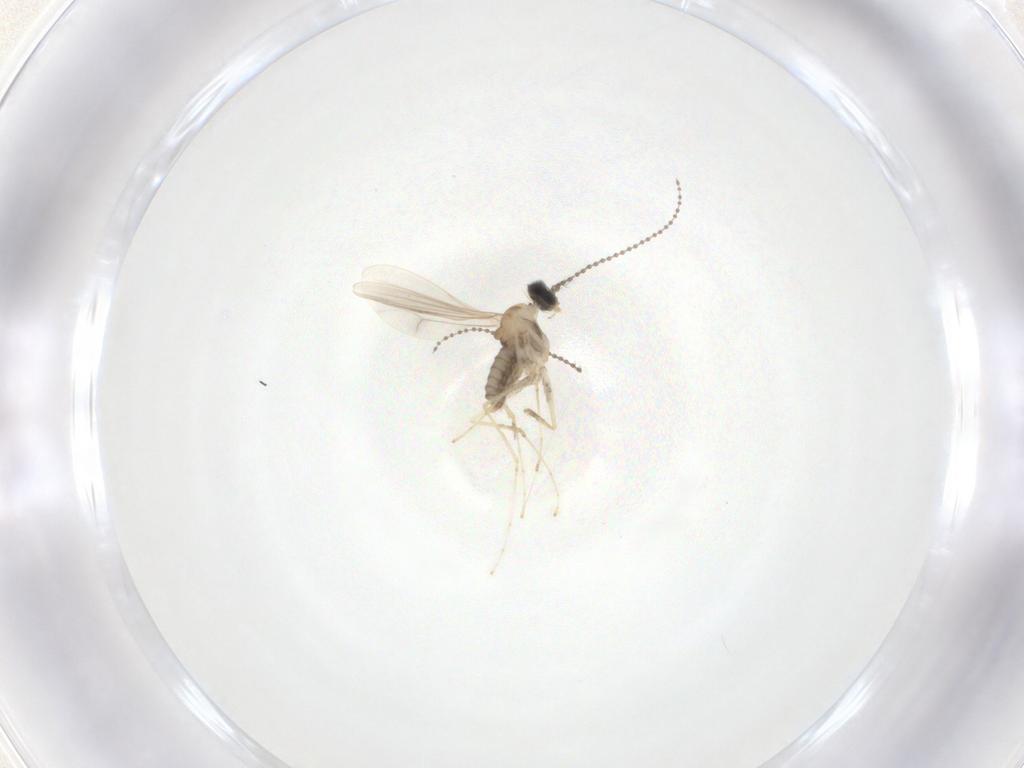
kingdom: Animalia
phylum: Arthropoda
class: Insecta
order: Diptera
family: Cecidomyiidae
